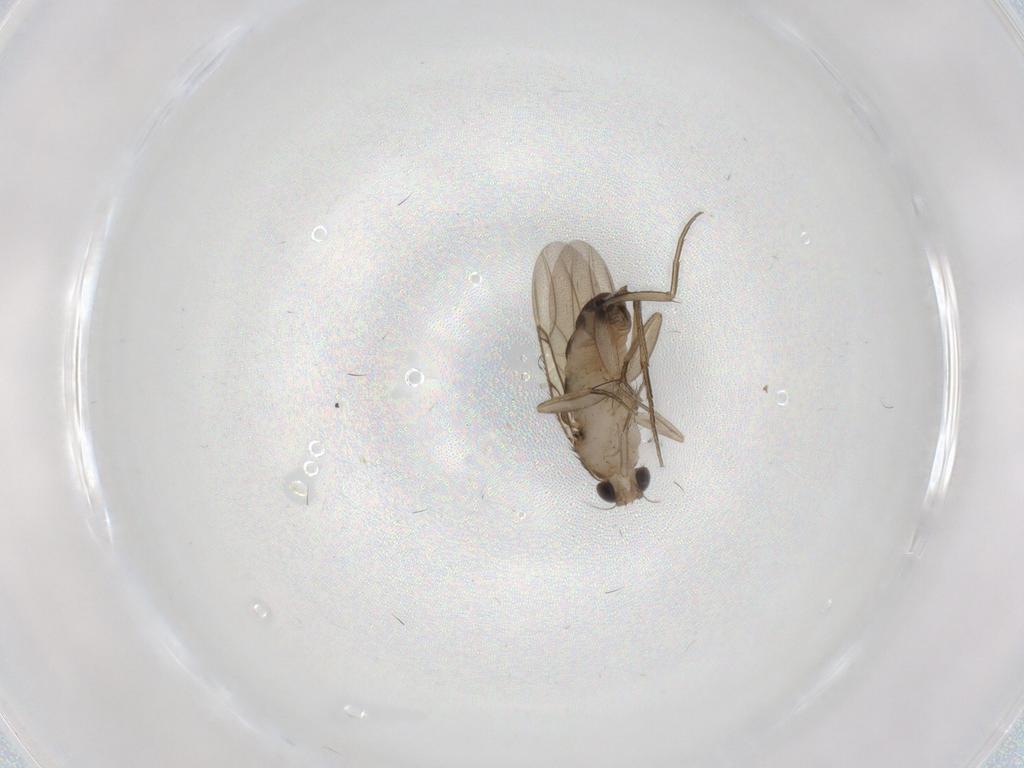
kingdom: Animalia
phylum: Arthropoda
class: Insecta
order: Diptera
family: Phoridae
